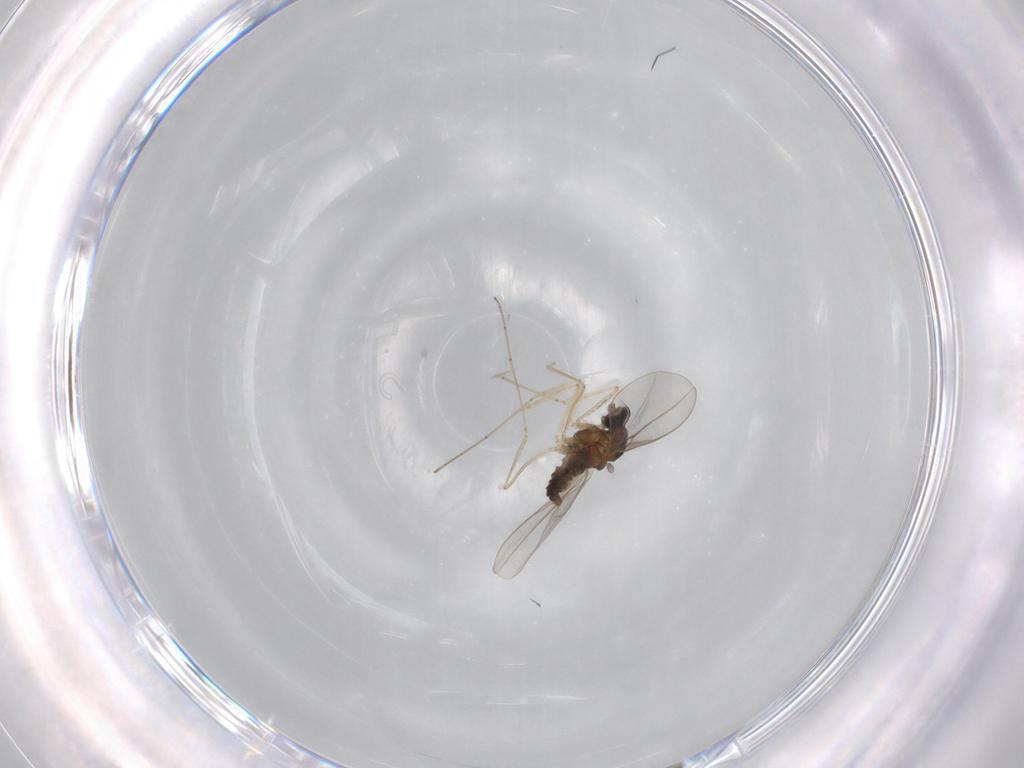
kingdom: Animalia
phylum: Arthropoda
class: Insecta
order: Diptera
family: Cecidomyiidae
